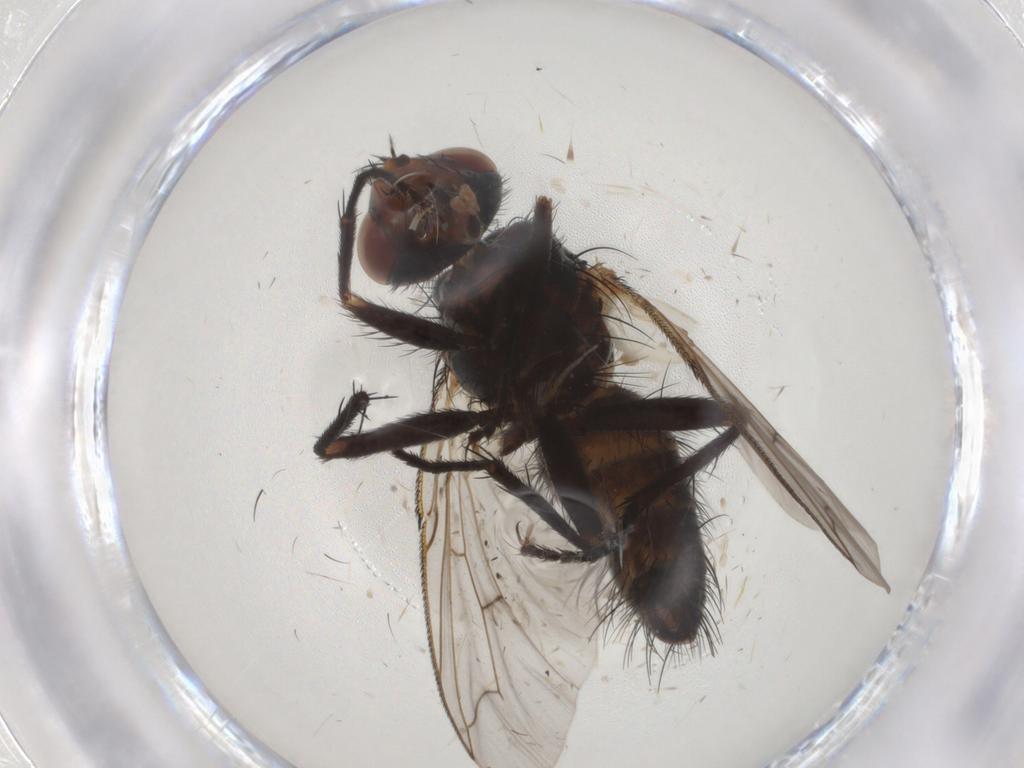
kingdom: Animalia
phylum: Arthropoda
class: Insecta
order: Diptera
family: Tachinidae
